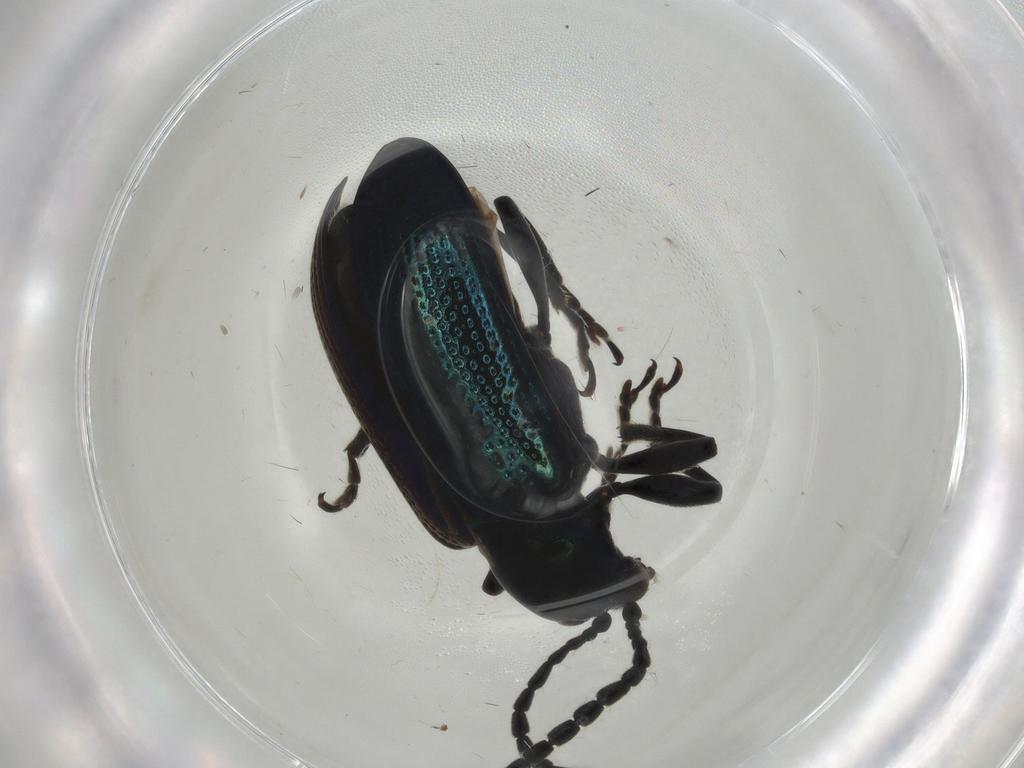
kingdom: Animalia
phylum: Arthropoda
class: Insecta
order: Coleoptera
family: Chrysomelidae
